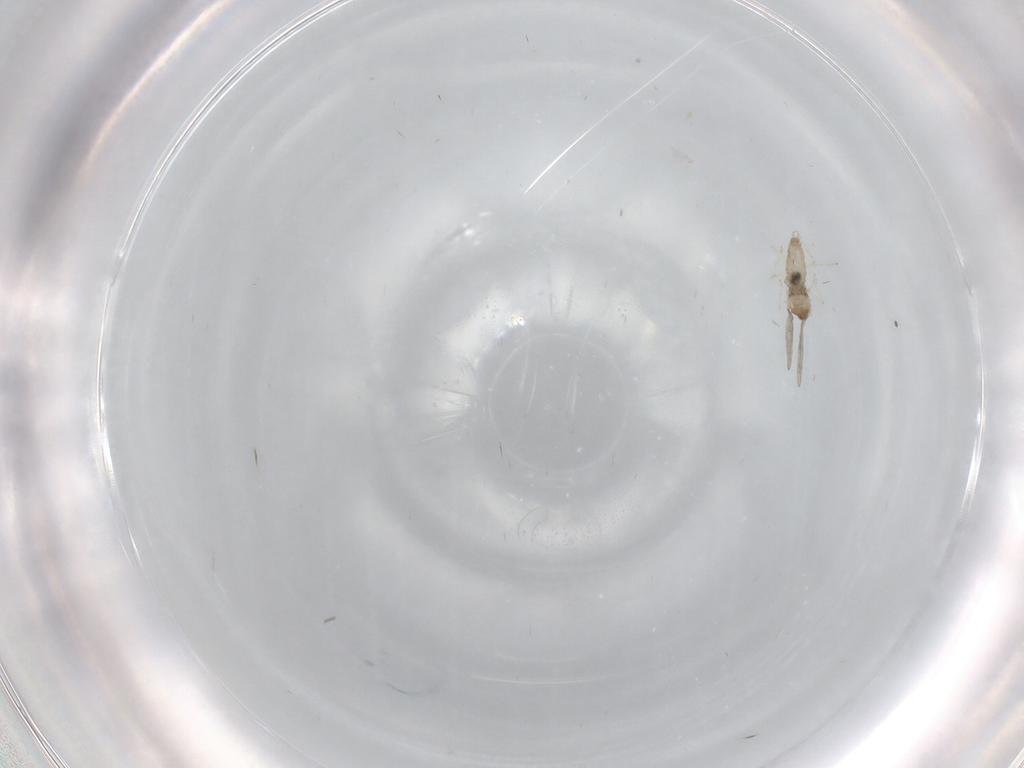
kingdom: Animalia
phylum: Arthropoda
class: Insecta
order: Diptera
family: Cecidomyiidae
